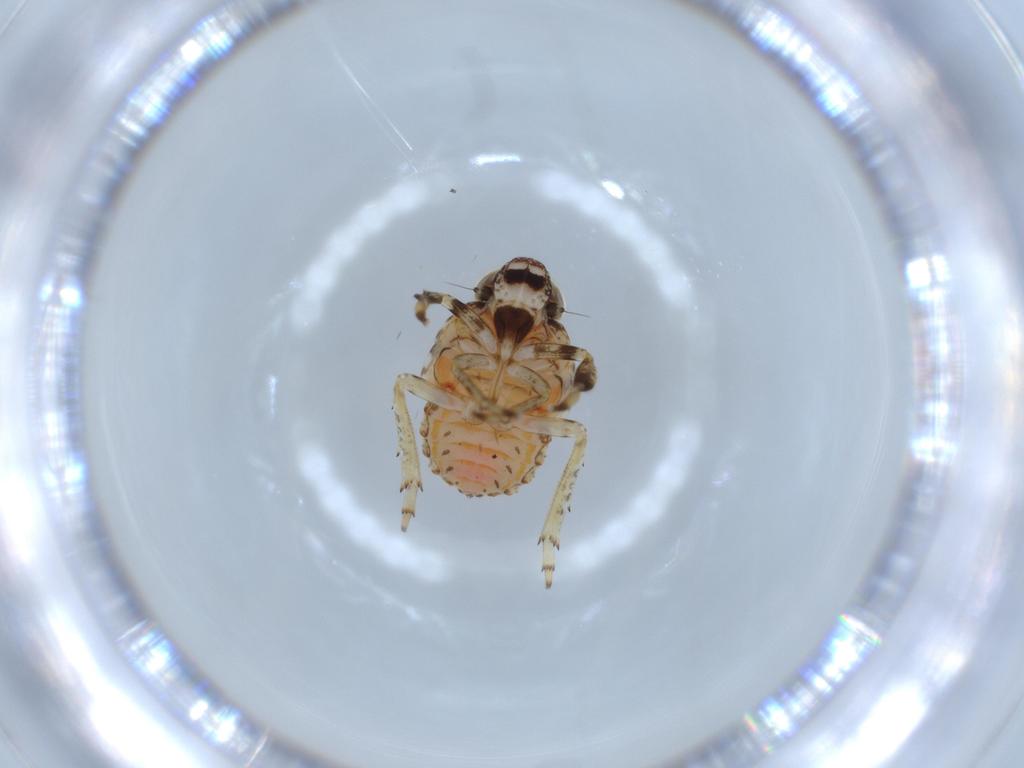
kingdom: Animalia
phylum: Arthropoda
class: Insecta
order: Hemiptera
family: Issidae
